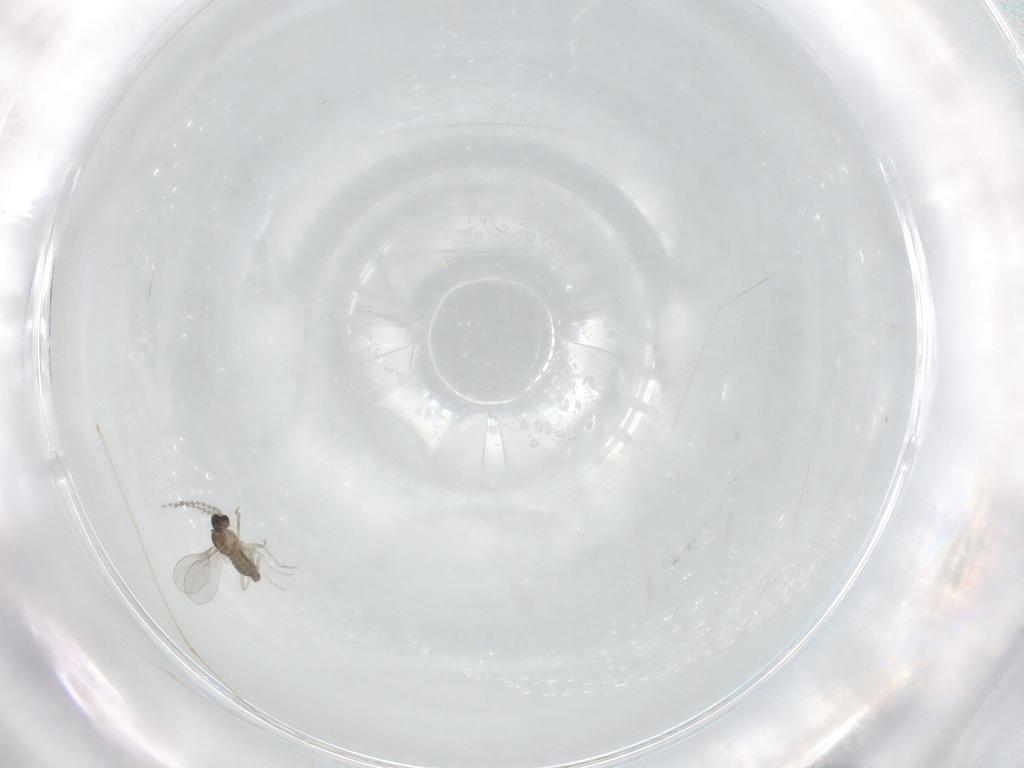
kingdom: Animalia
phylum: Arthropoda
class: Insecta
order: Diptera
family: Cecidomyiidae
